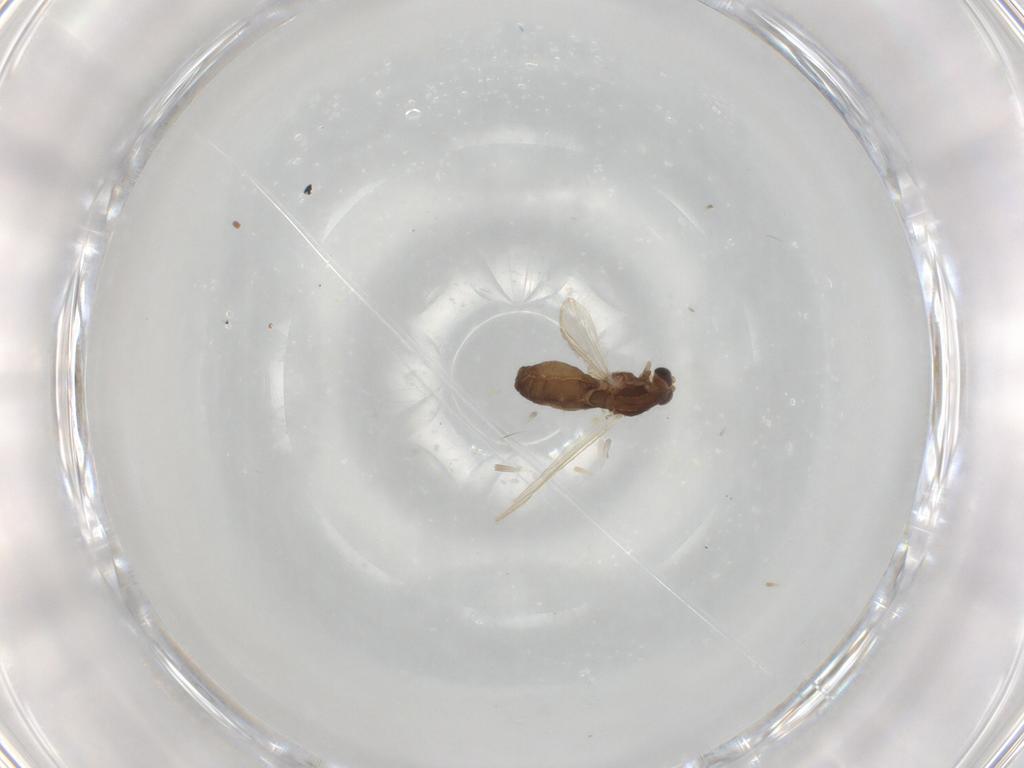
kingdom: Animalia
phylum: Arthropoda
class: Insecta
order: Diptera
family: Chironomidae
